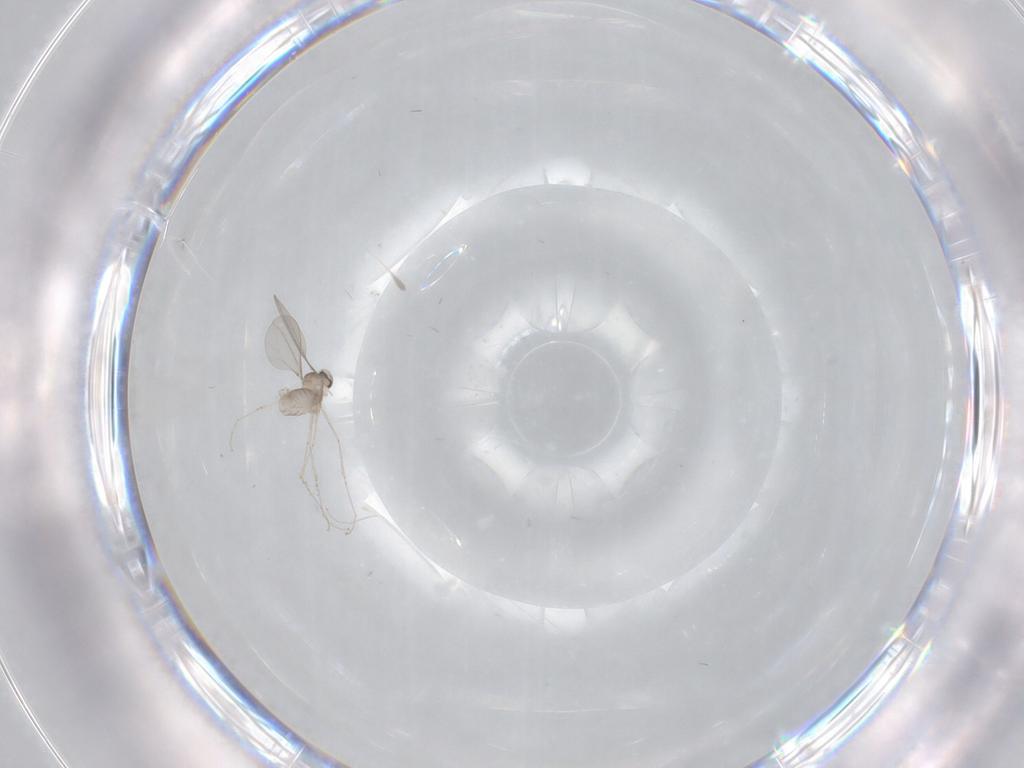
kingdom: Animalia
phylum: Arthropoda
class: Insecta
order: Diptera
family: Cecidomyiidae
